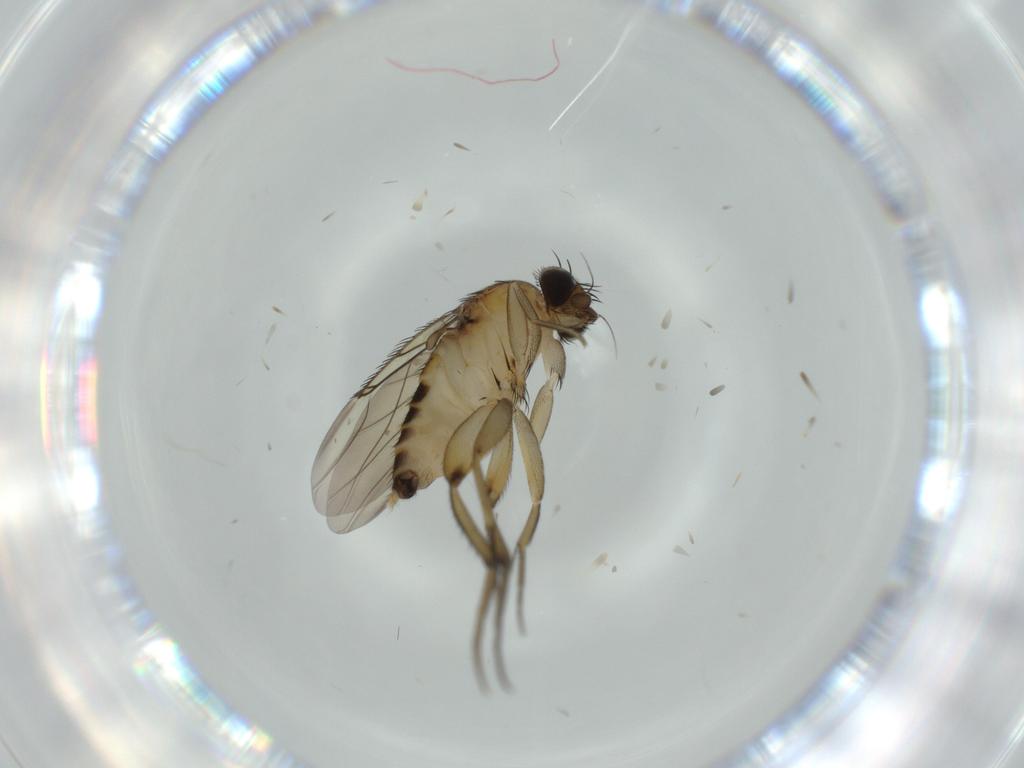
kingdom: Animalia
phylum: Arthropoda
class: Insecta
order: Diptera
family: Phoridae
